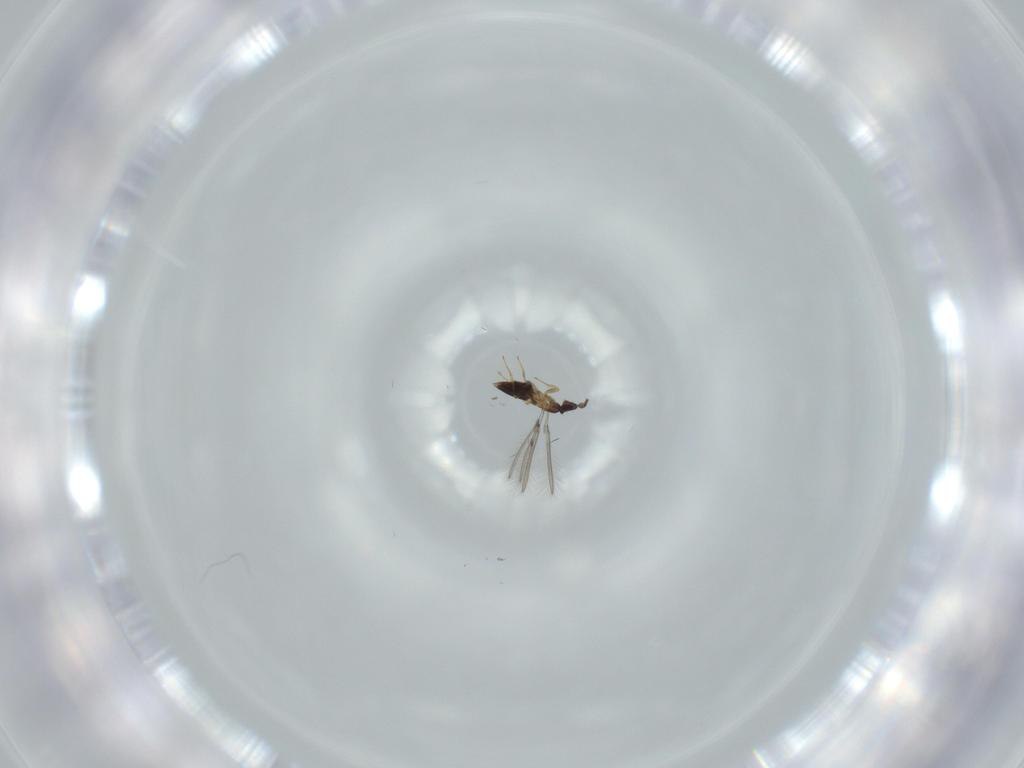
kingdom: Animalia
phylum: Arthropoda
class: Insecta
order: Hymenoptera
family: Mymaridae
